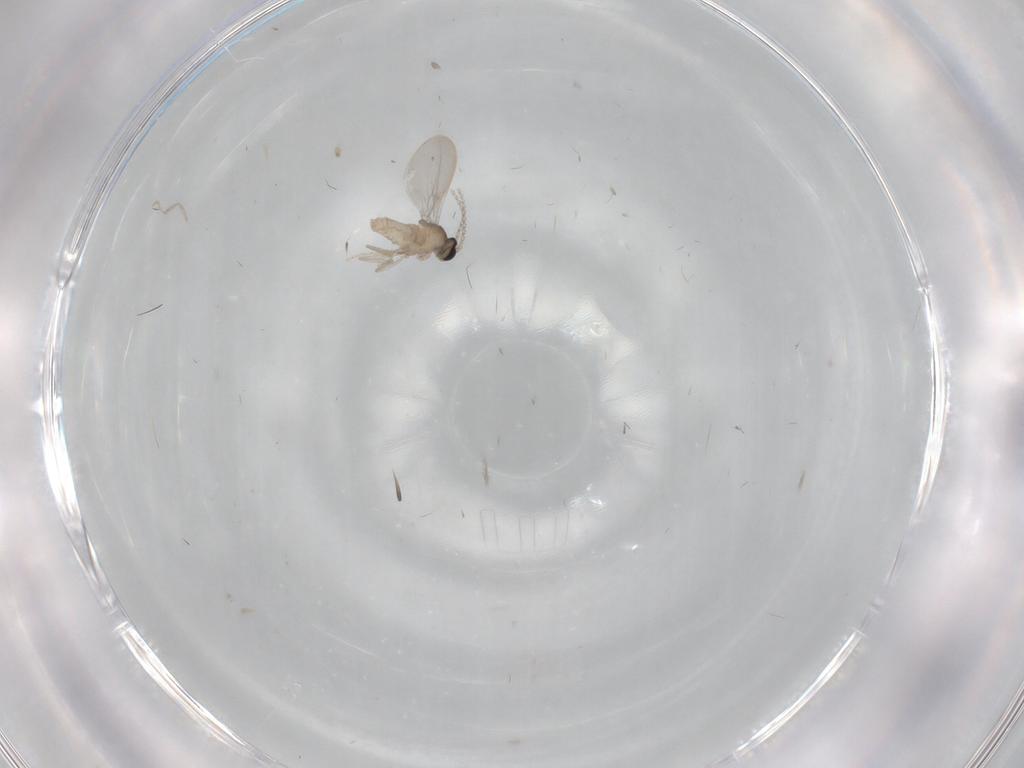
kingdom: Animalia
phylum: Arthropoda
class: Insecta
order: Diptera
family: Cecidomyiidae
